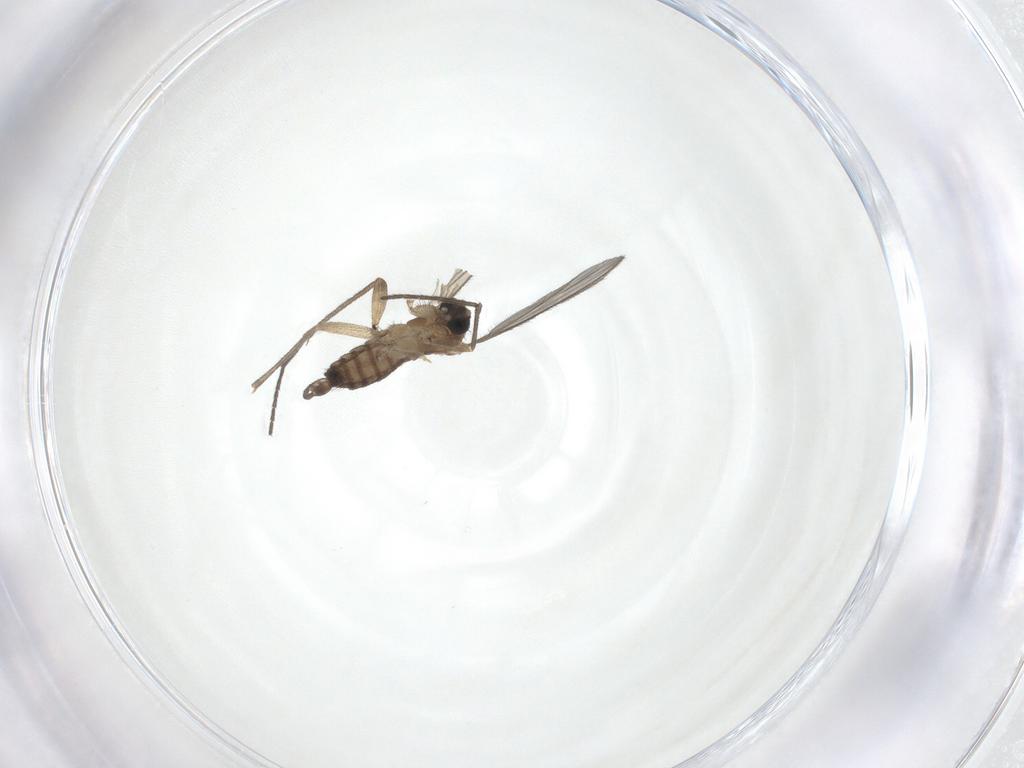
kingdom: Animalia
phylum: Arthropoda
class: Insecta
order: Diptera
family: Sciaridae
